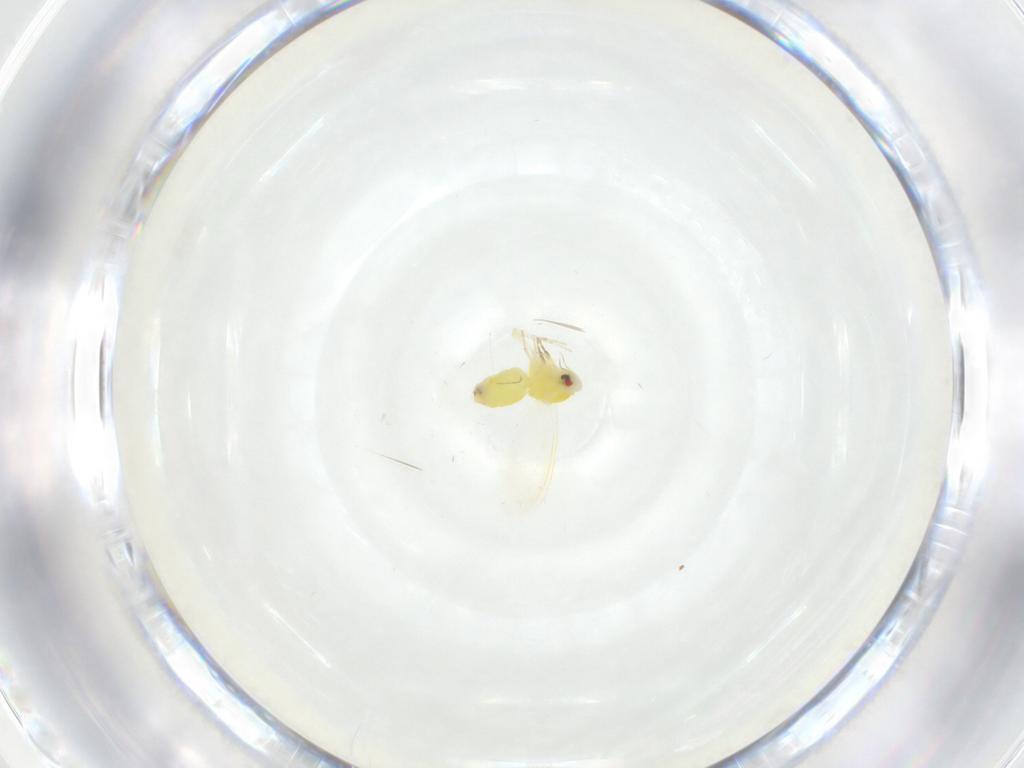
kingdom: Animalia
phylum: Arthropoda
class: Insecta
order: Hemiptera
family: Aleyrodidae
